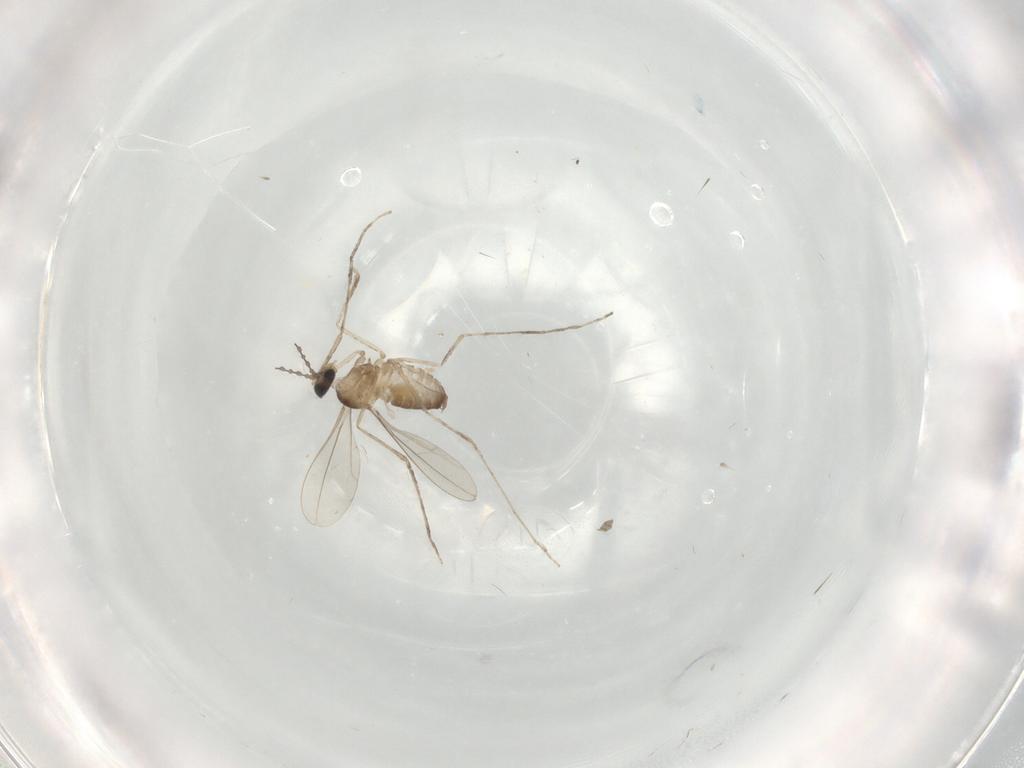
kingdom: Animalia
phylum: Arthropoda
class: Insecta
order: Diptera
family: Cecidomyiidae
